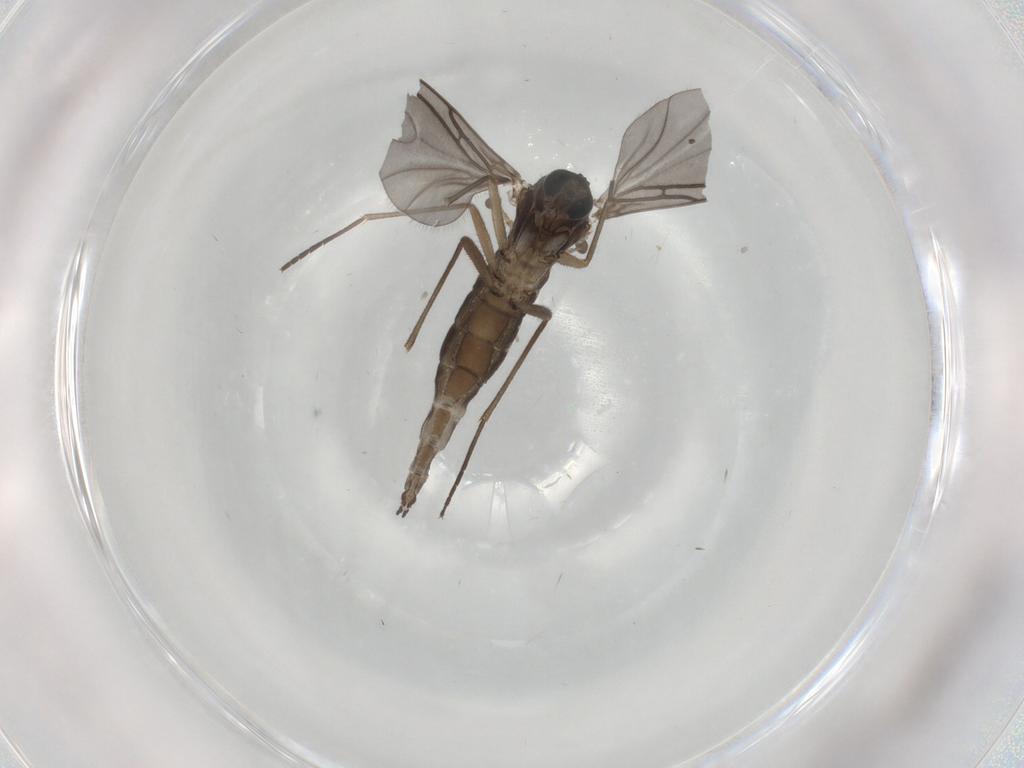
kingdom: Animalia
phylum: Arthropoda
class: Insecta
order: Diptera
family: Sciaridae
